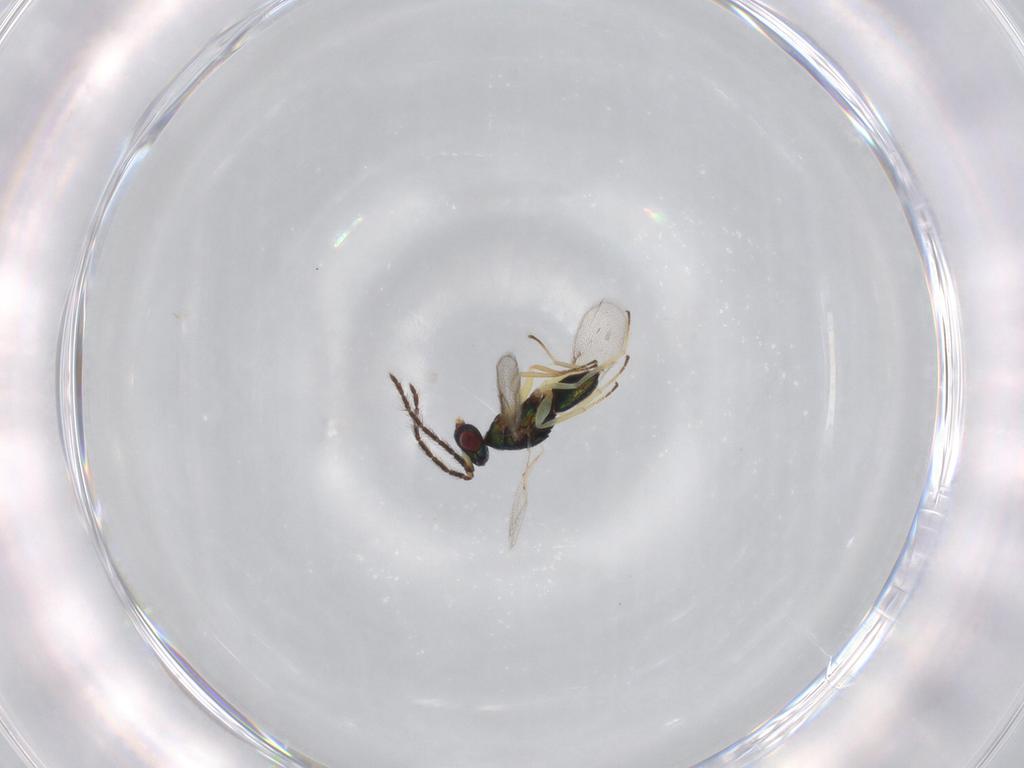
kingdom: Animalia
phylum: Arthropoda
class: Insecta
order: Hymenoptera
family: Eulophidae
